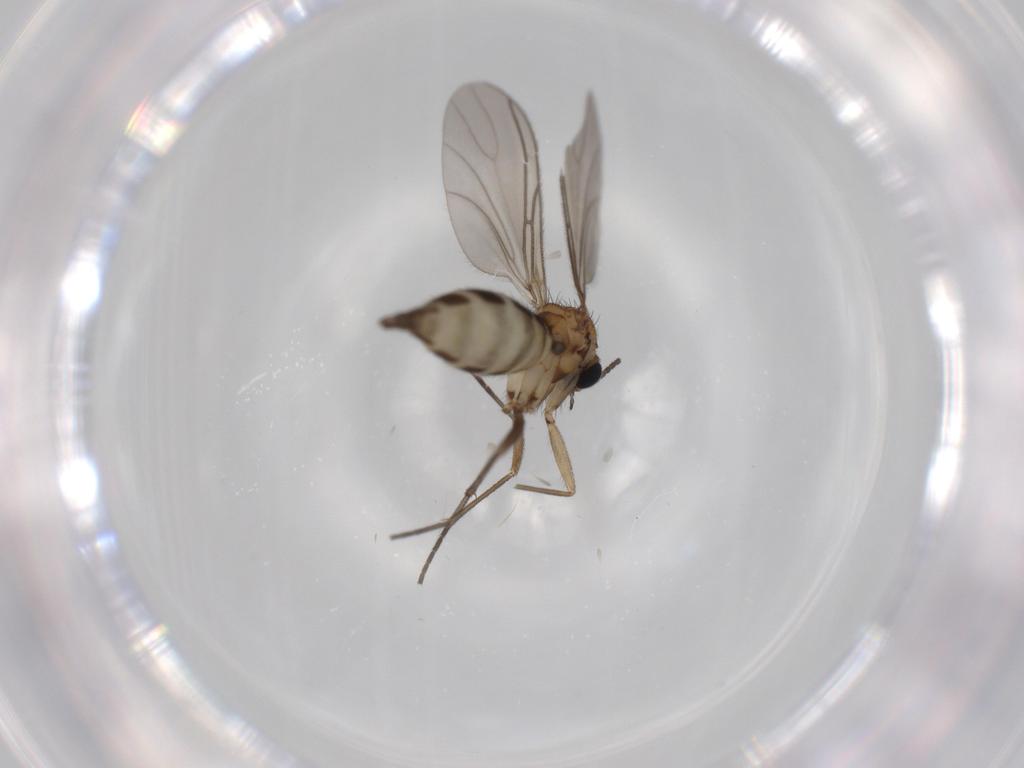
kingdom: Animalia
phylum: Arthropoda
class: Insecta
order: Diptera
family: Sciaridae
